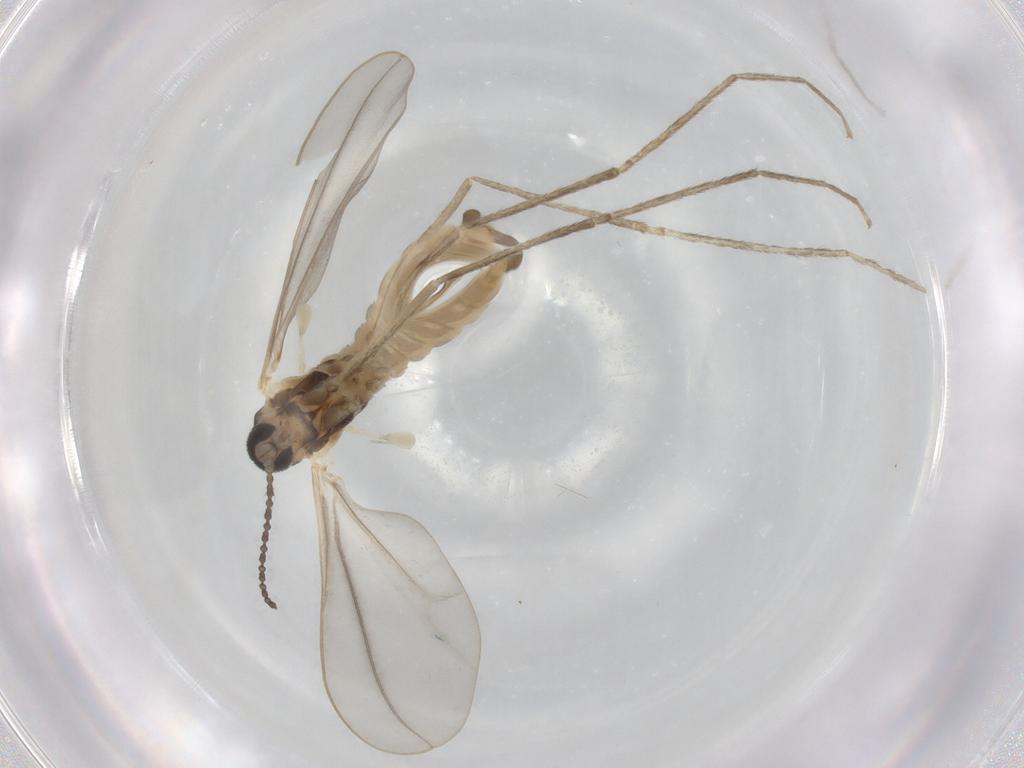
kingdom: Animalia
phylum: Arthropoda
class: Insecta
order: Diptera
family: Cecidomyiidae
